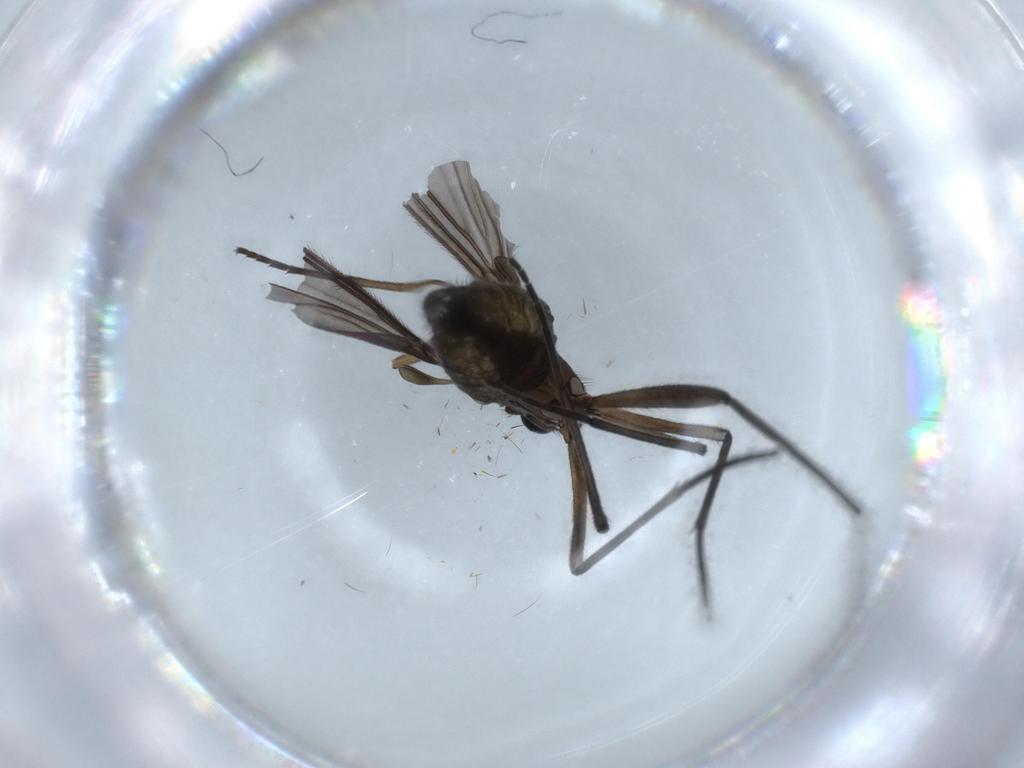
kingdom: Animalia
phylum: Arthropoda
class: Insecta
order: Diptera
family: Sciaridae
